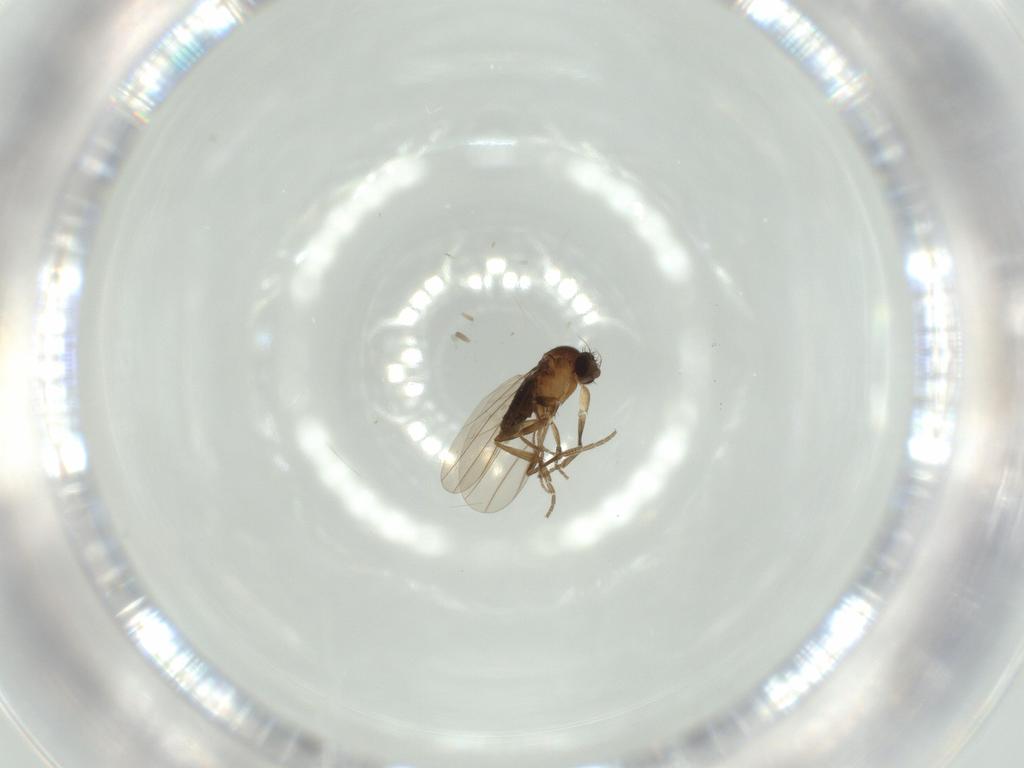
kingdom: Animalia
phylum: Arthropoda
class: Insecta
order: Diptera
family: Phoridae
